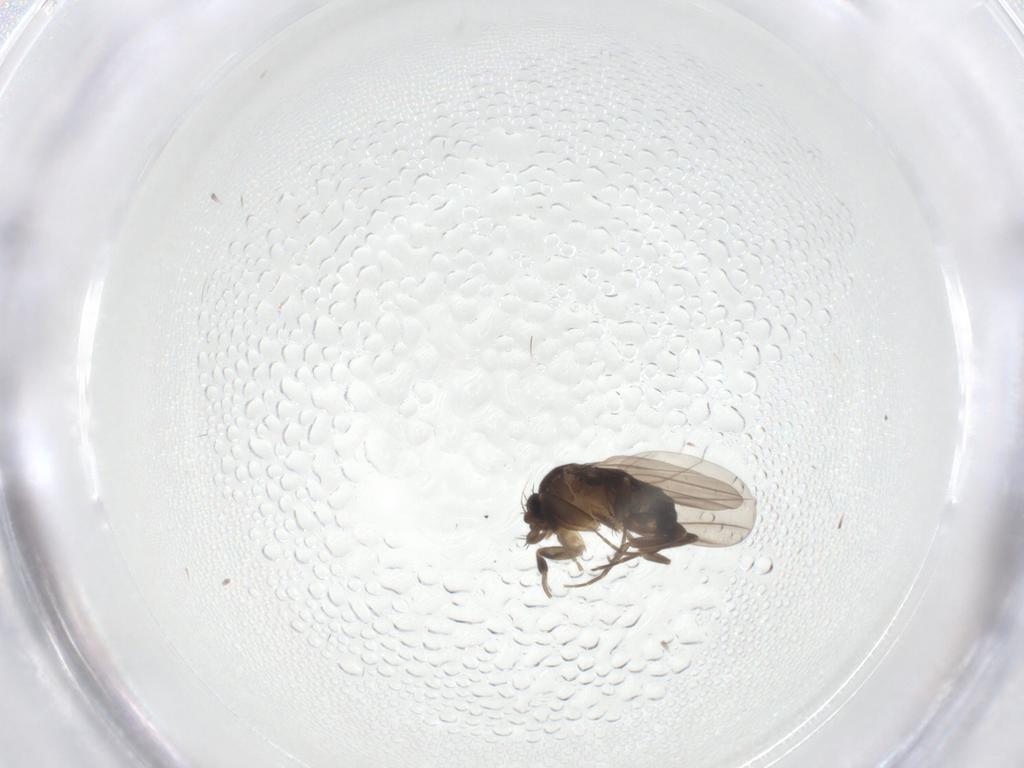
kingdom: Animalia
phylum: Arthropoda
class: Insecta
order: Diptera
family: Phoridae
